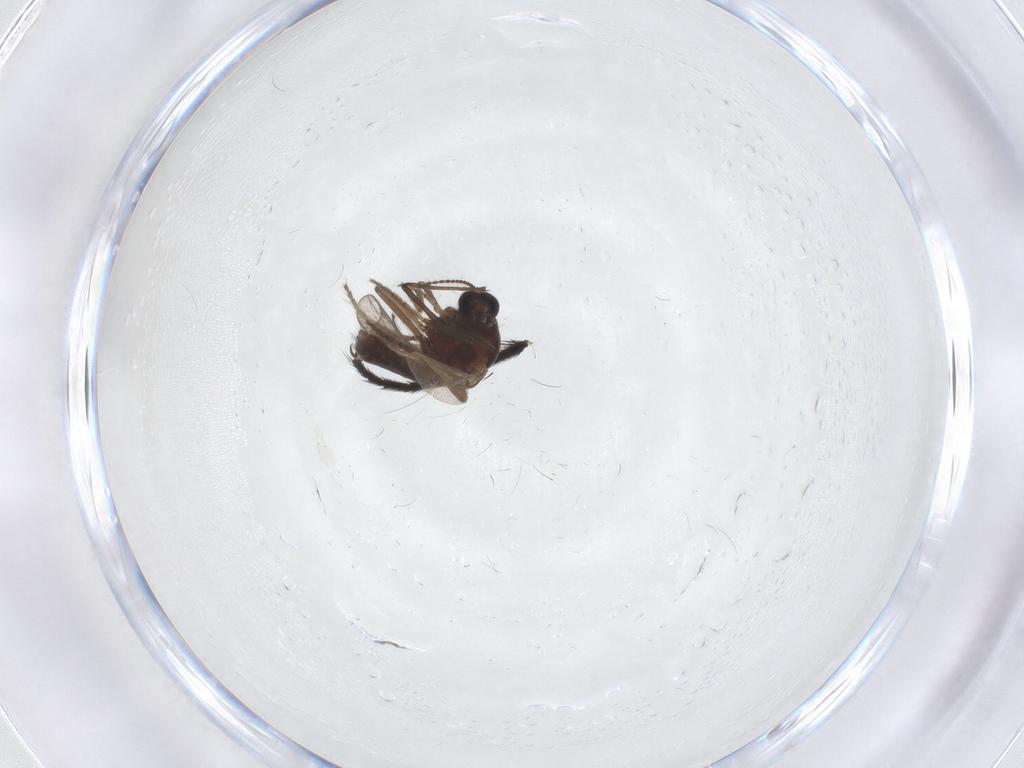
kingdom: Animalia
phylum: Arthropoda
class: Insecta
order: Diptera
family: Ceratopogonidae
